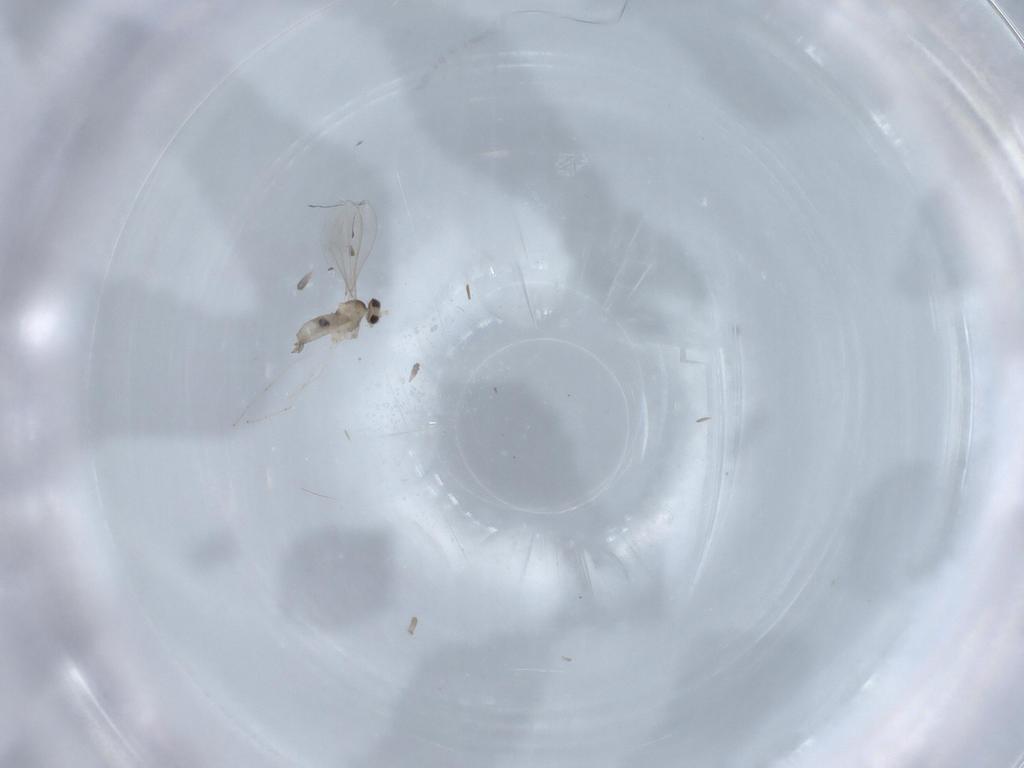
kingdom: Animalia
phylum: Arthropoda
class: Insecta
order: Diptera
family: Cecidomyiidae
